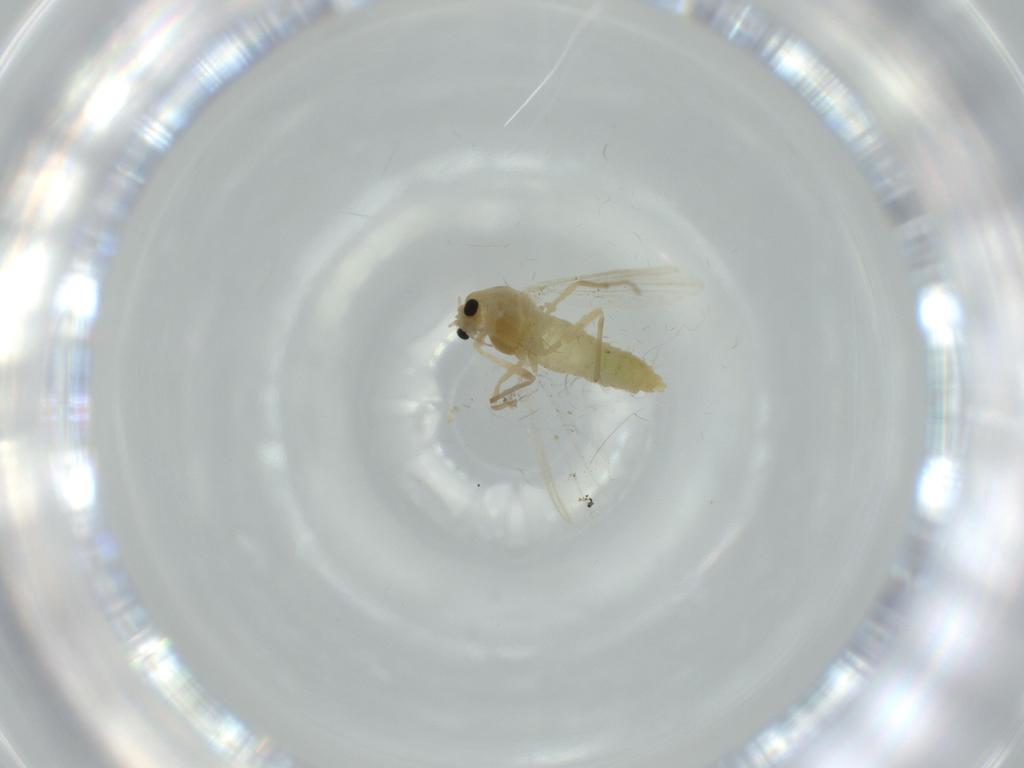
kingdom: Animalia
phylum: Arthropoda
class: Insecta
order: Diptera
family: Chironomidae
